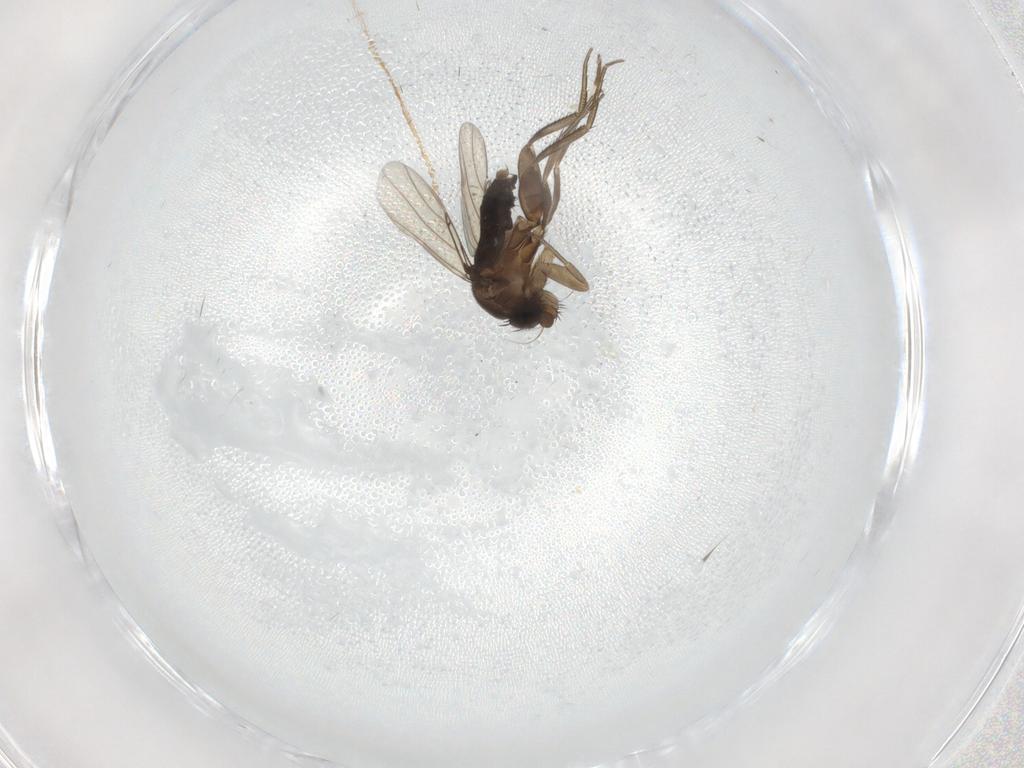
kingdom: Animalia
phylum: Arthropoda
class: Insecta
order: Diptera
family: Phoridae
